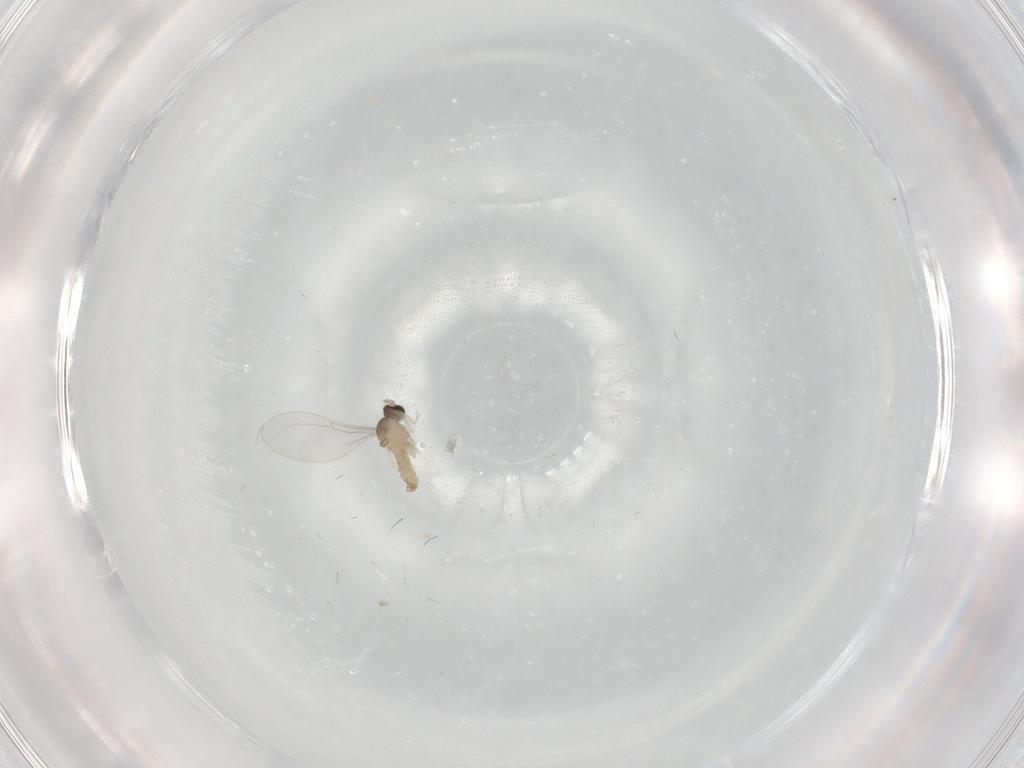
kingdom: Animalia
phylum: Arthropoda
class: Insecta
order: Diptera
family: Cecidomyiidae
